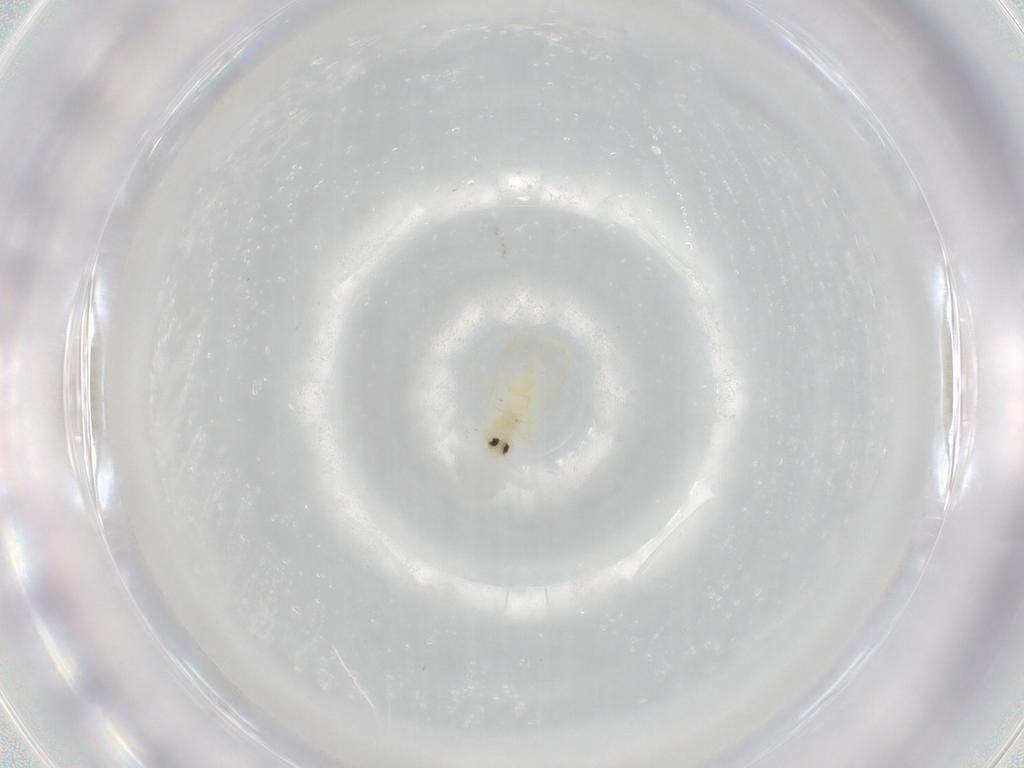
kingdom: Animalia
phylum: Arthropoda
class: Insecta
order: Hemiptera
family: Aleyrodidae
